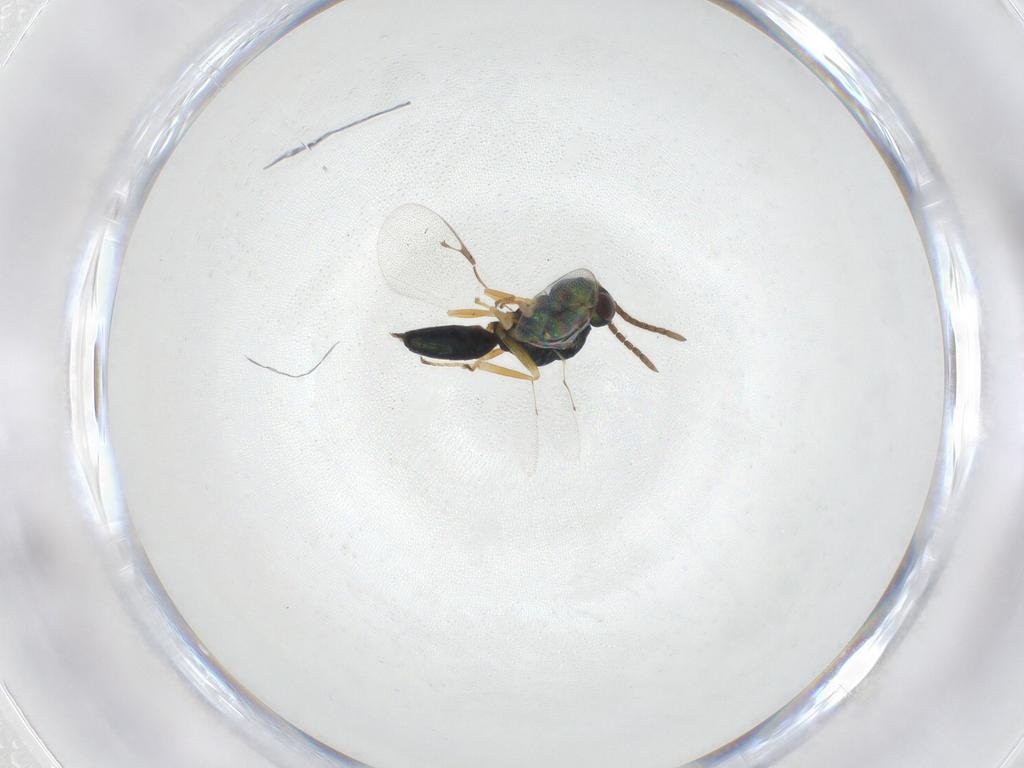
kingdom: Animalia
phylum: Arthropoda
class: Insecta
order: Hymenoptera
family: Pteromalidae
